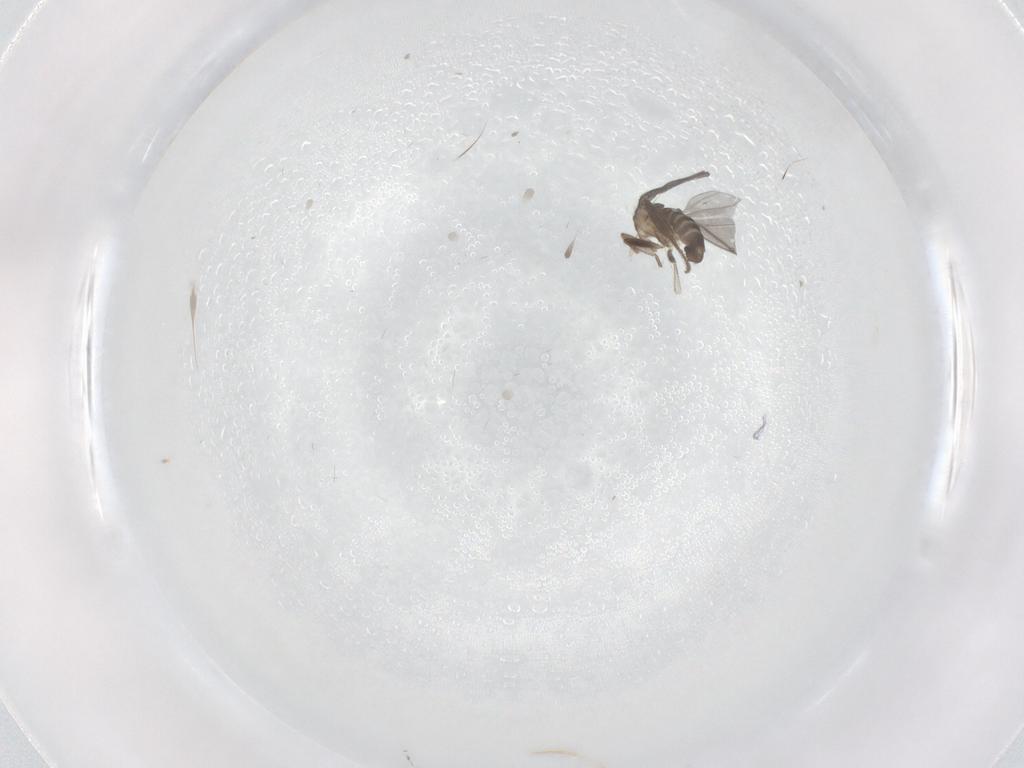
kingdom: Animalia
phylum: Arthropoda
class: Insecta
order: Diptera
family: Phoridae
